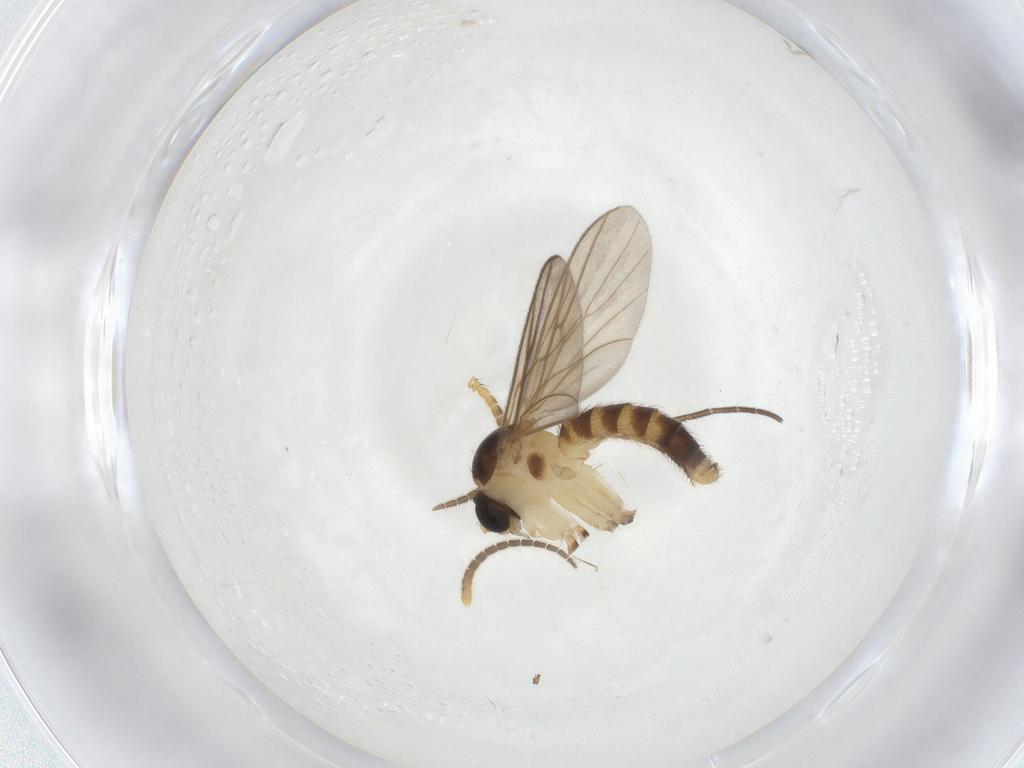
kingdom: Animalia
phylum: Arthropoda
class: Insecta
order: Diptera
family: Mycetophilidae
